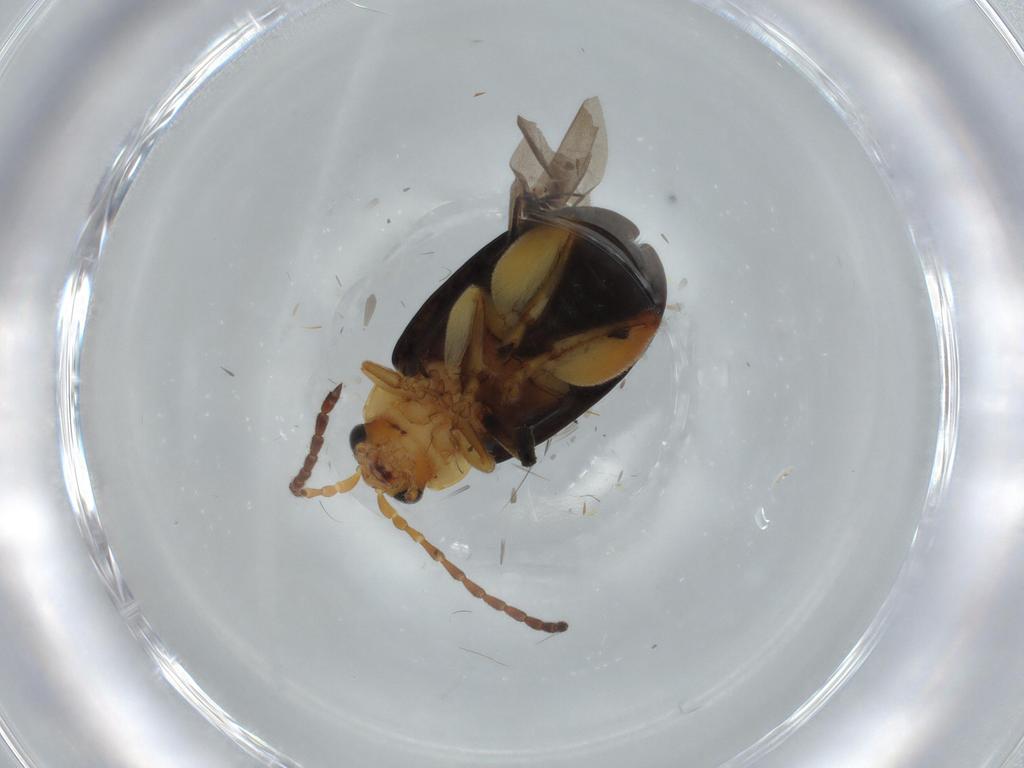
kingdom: Animalia
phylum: Arthropoda
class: Insecta
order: Coleoptera
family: Chrysomelidae
